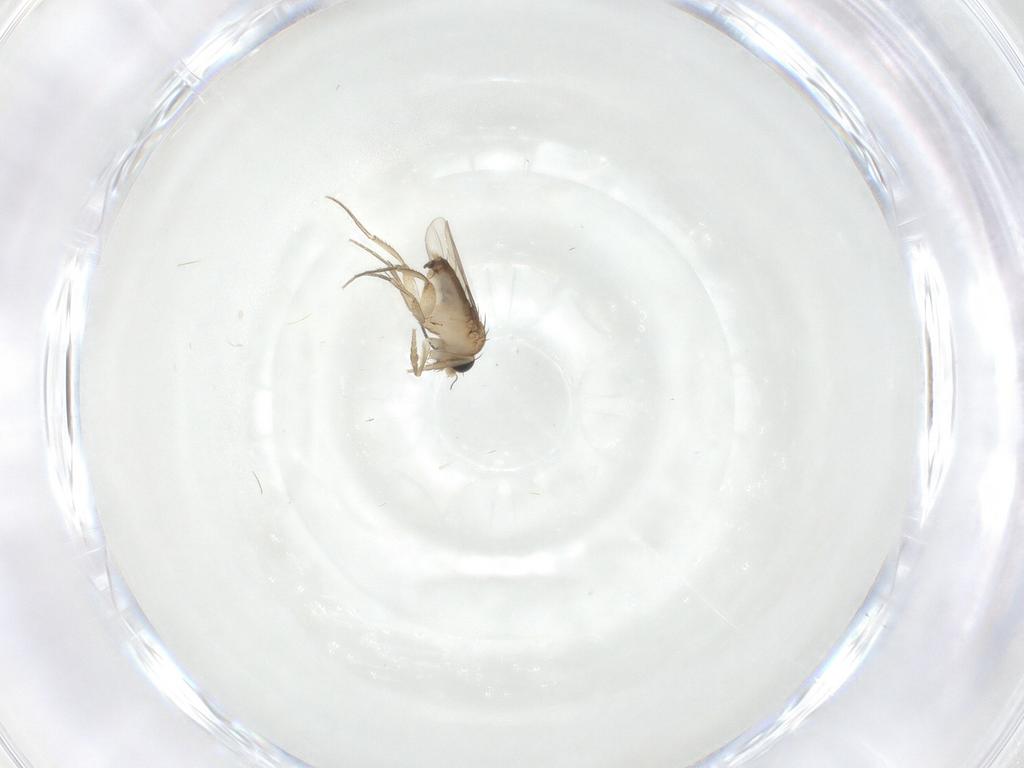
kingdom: Animalia
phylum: Arthropoda
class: Insecta
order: Diptera
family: Phoridae
